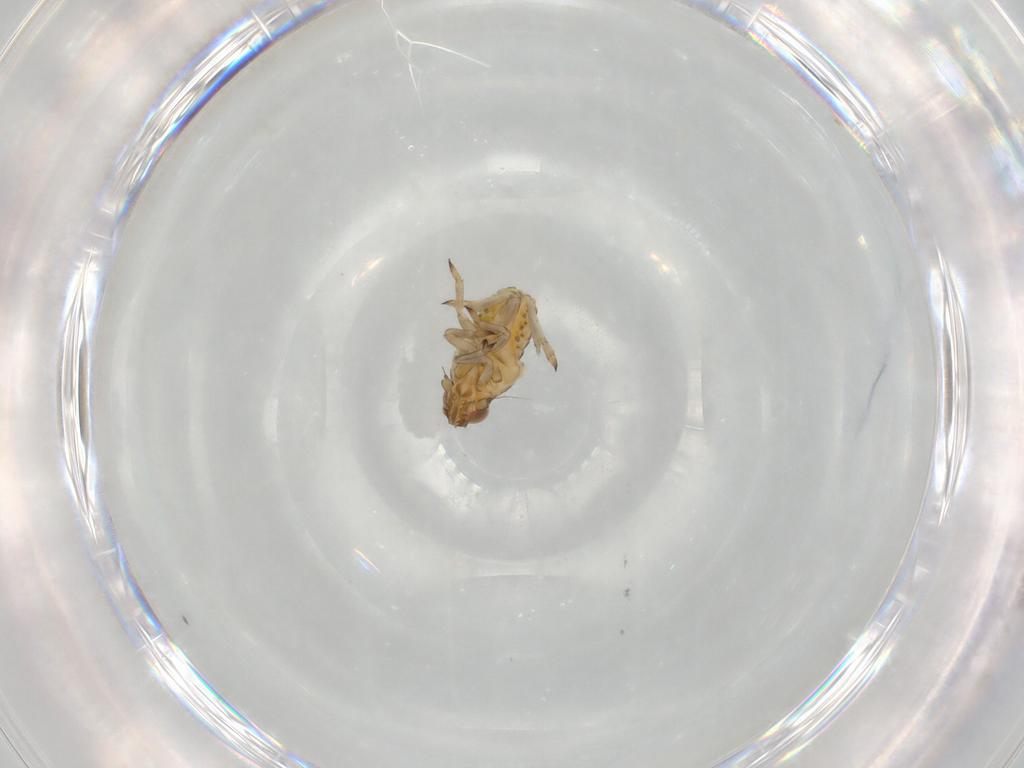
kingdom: Animalia
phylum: Arthropoda
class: Insecta
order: Hemiptera
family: Miridae
